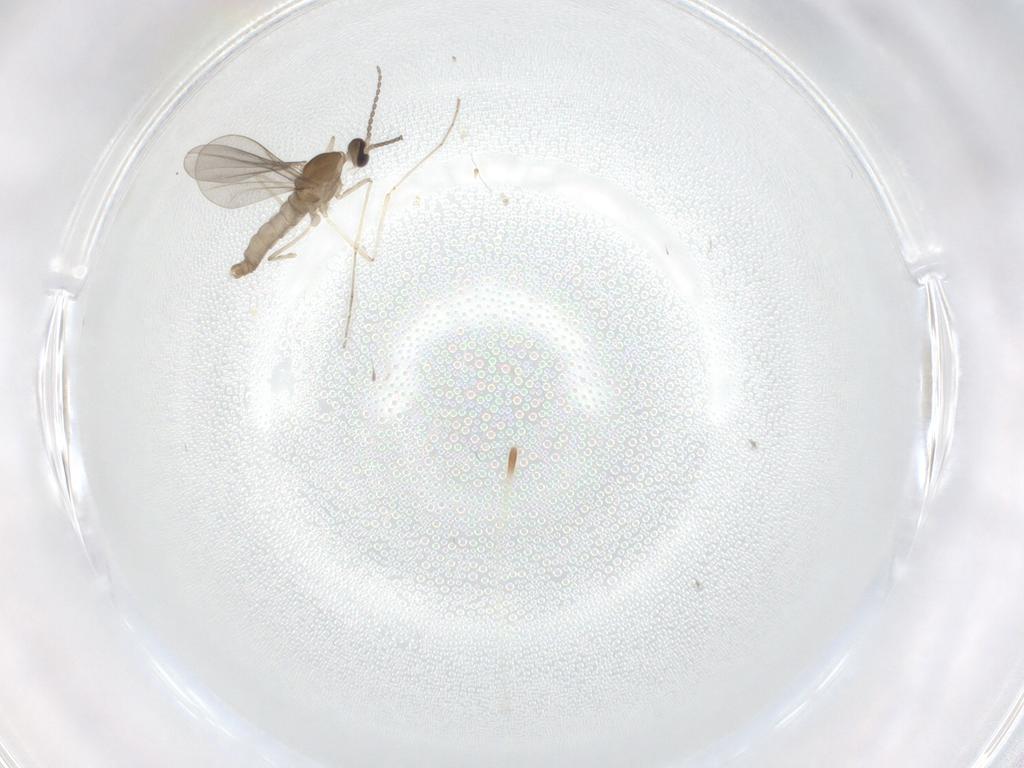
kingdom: Animalia
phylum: Arthropoda
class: Insecta
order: Diptera
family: Cecidomyiidae
